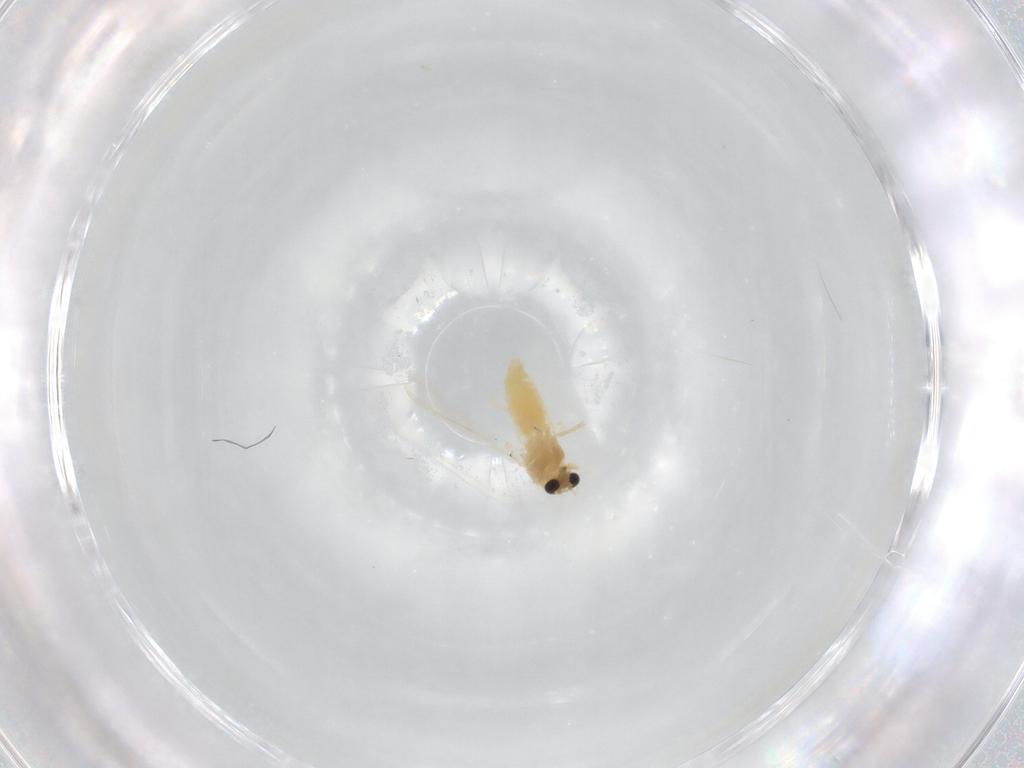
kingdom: Animalia
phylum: Arthropoda
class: Insecta
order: Diptera
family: Chironomidae
